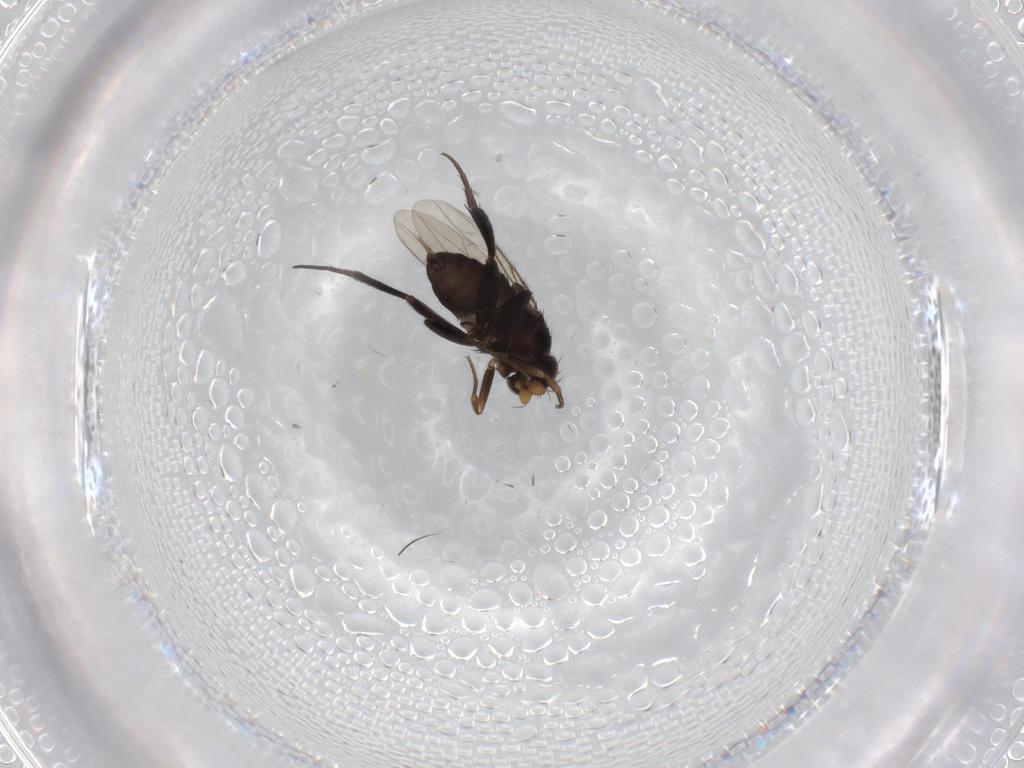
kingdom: Animalia
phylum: Arthropoda
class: Insecta
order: Diptera
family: Phoridae
